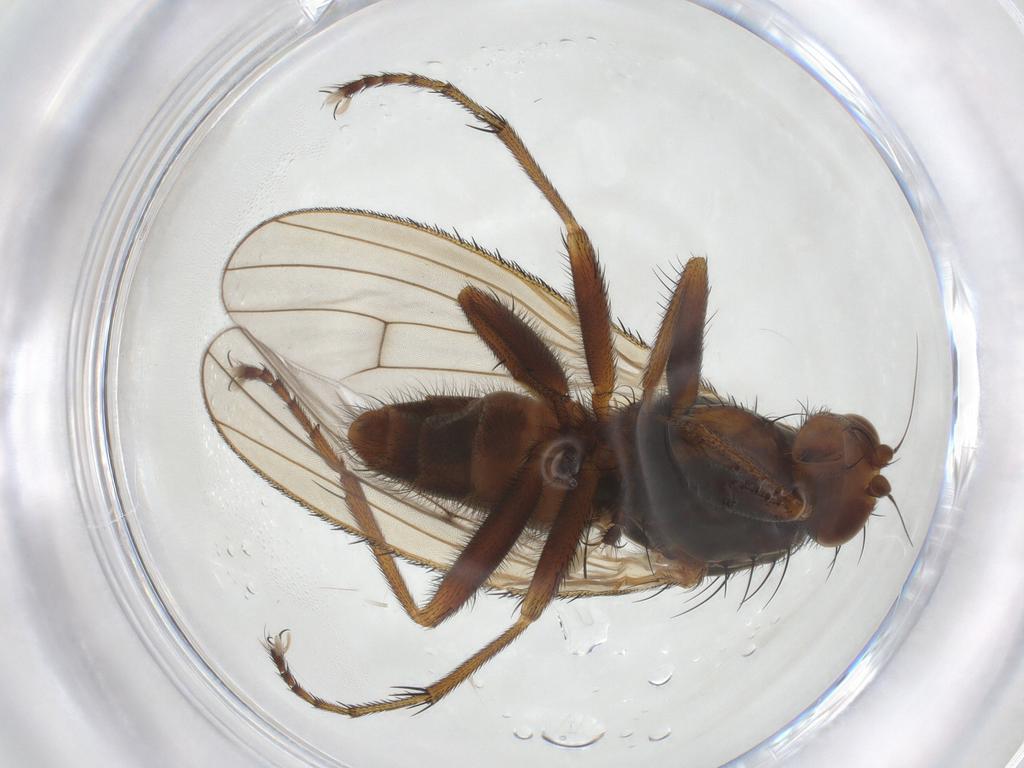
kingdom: Animalia
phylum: Arthropoda
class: Insecta
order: Diptera
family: Heleomyzidae
